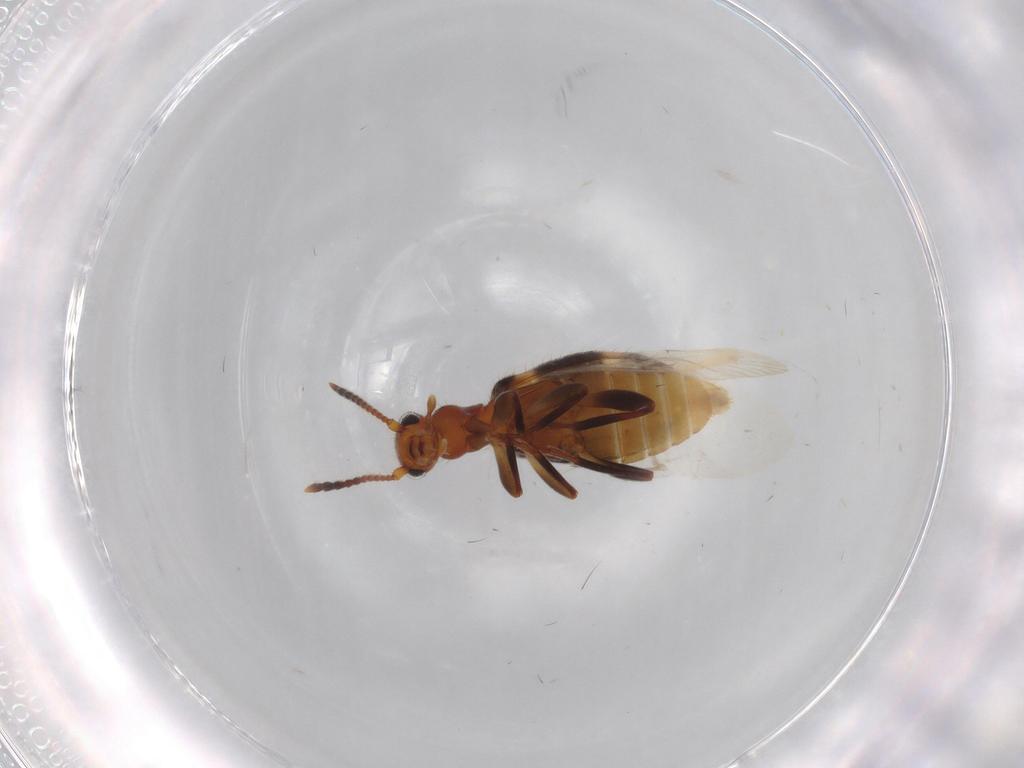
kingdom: Animalia
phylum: Arthropoda
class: Insecta
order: Coleoptera
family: Anthicidae
